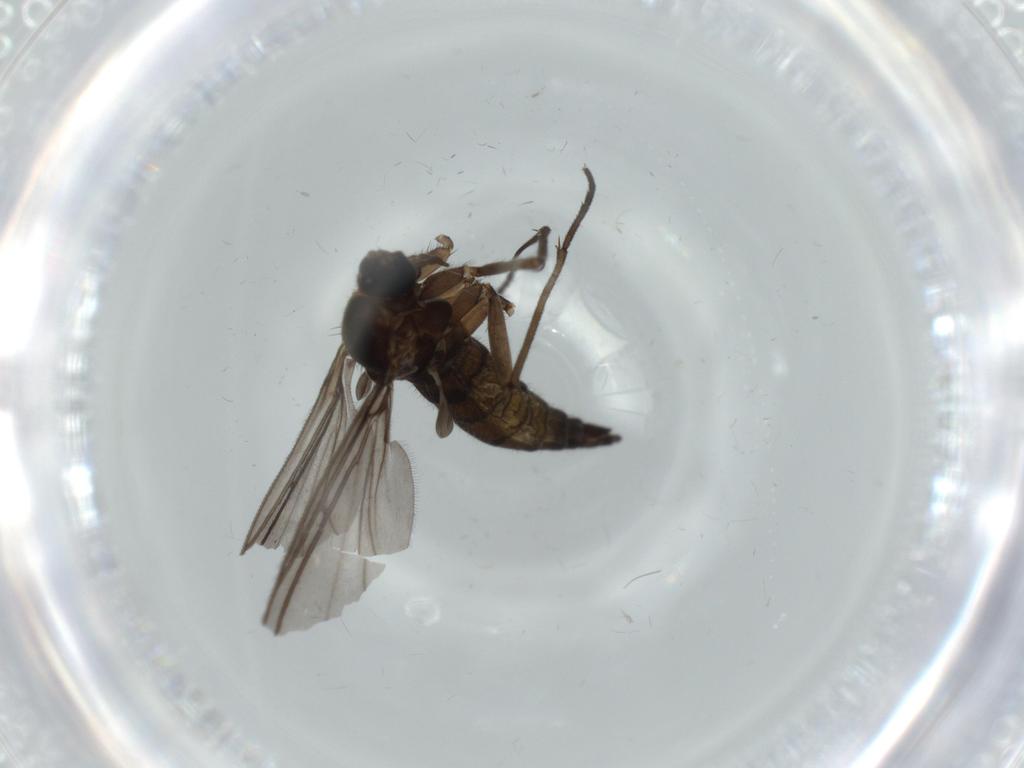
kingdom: Animalia
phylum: Arthropoda
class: Insecta
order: Diptera
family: Sciaridae
